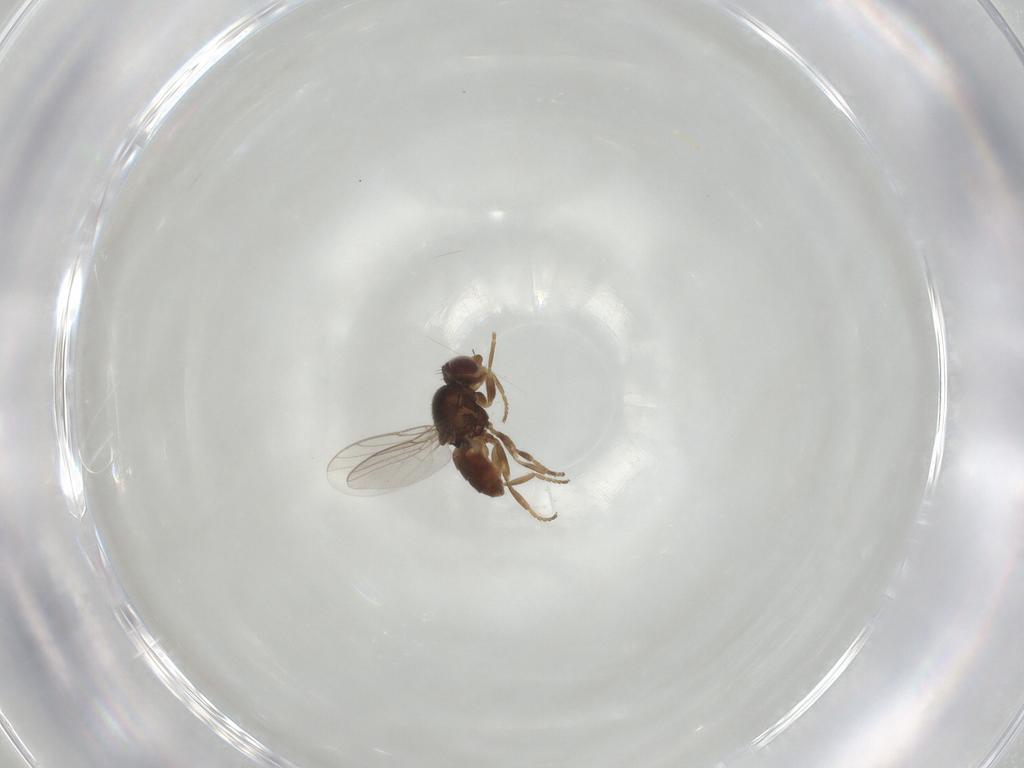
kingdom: Animalia
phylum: Arthropoda
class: Insecta
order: Diptera
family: Chloropidae
